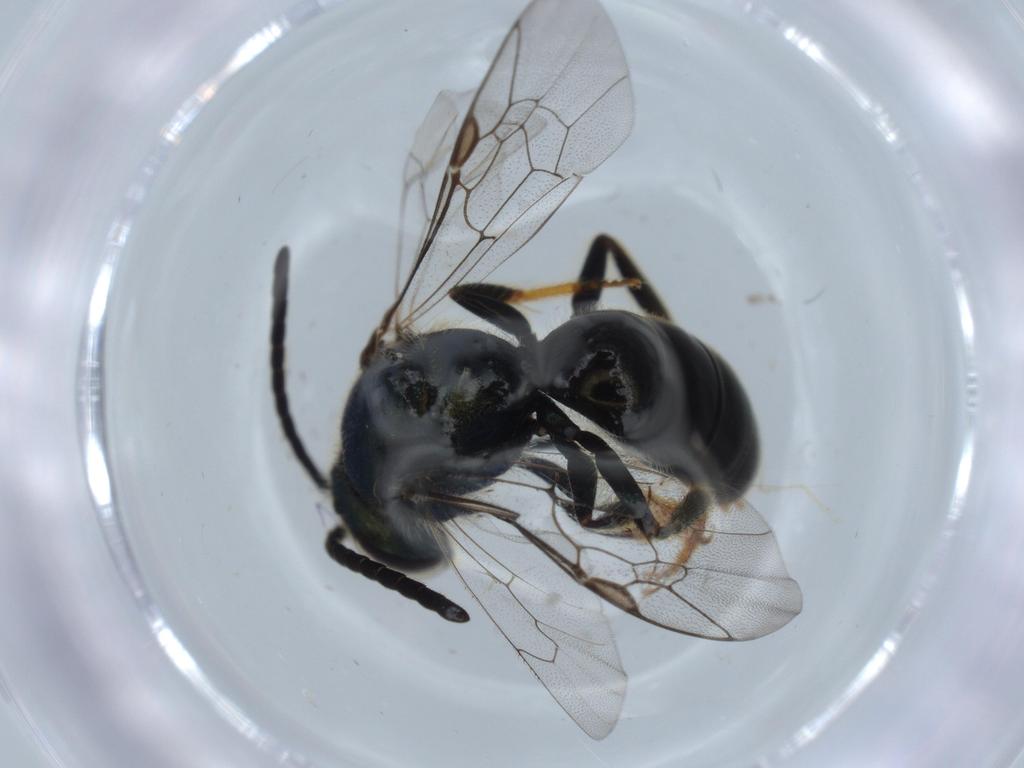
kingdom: Animalia
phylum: Arthropoda
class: Insecta
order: Hymenoptera
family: Halictidae
